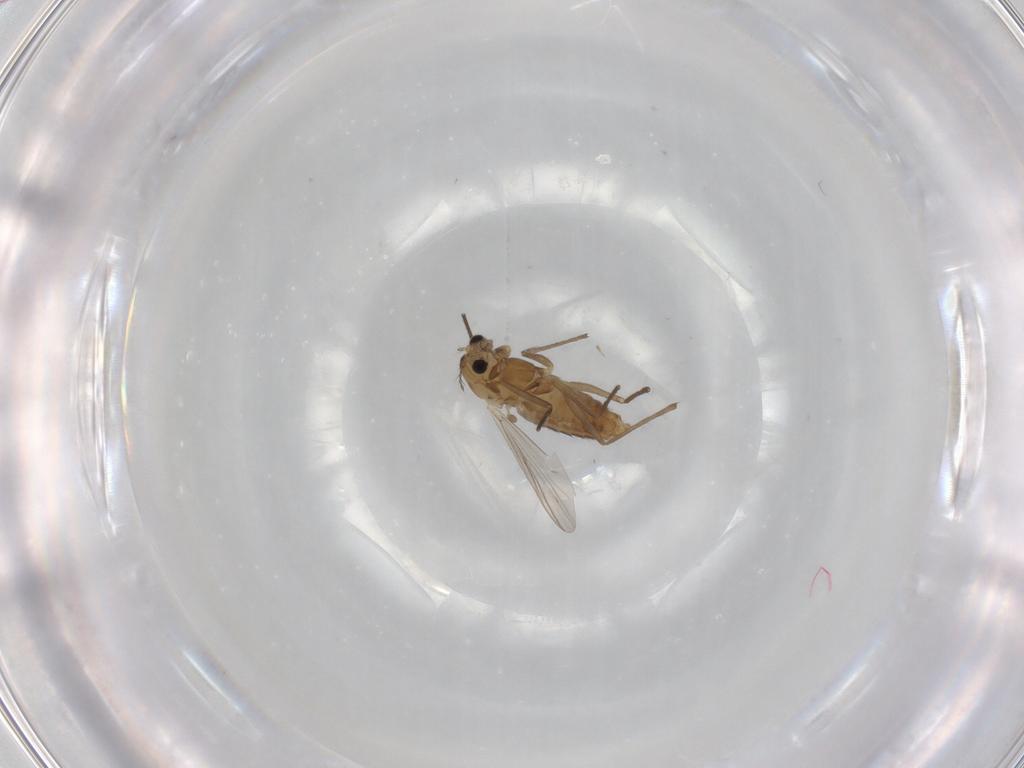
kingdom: Animalia
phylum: Arthropoda
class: Insecta
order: Diptera
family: Chironomidae
